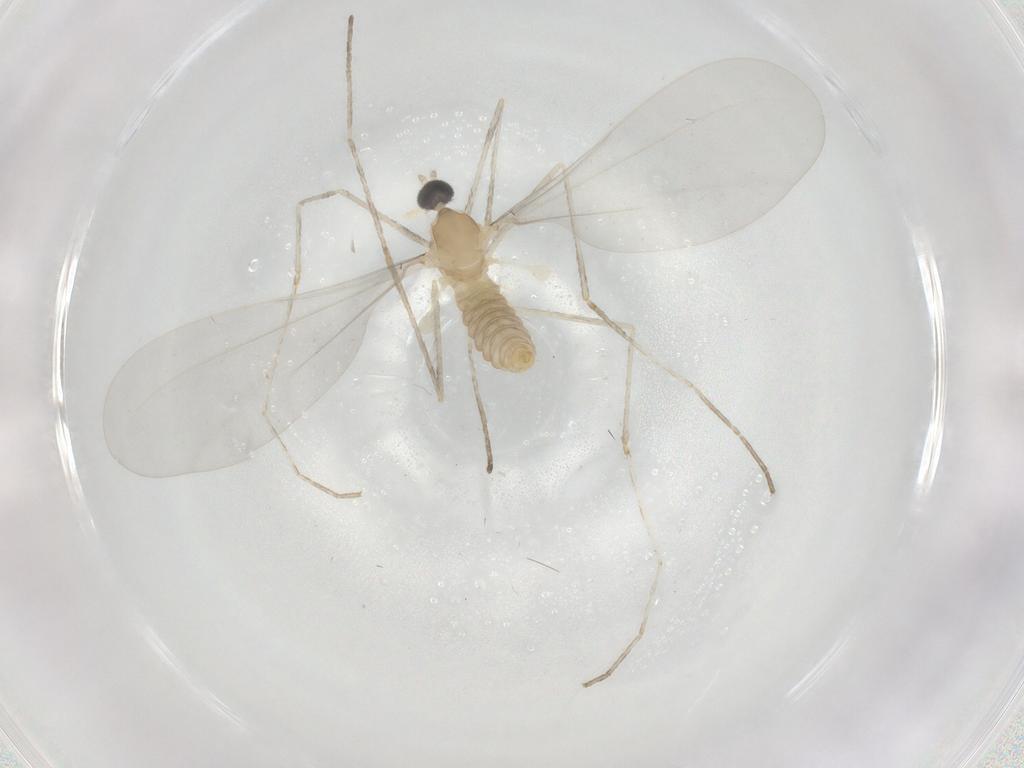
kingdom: Animalia
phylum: Arthropoda
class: Insecta
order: Diptera
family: Cecidomyiidae
